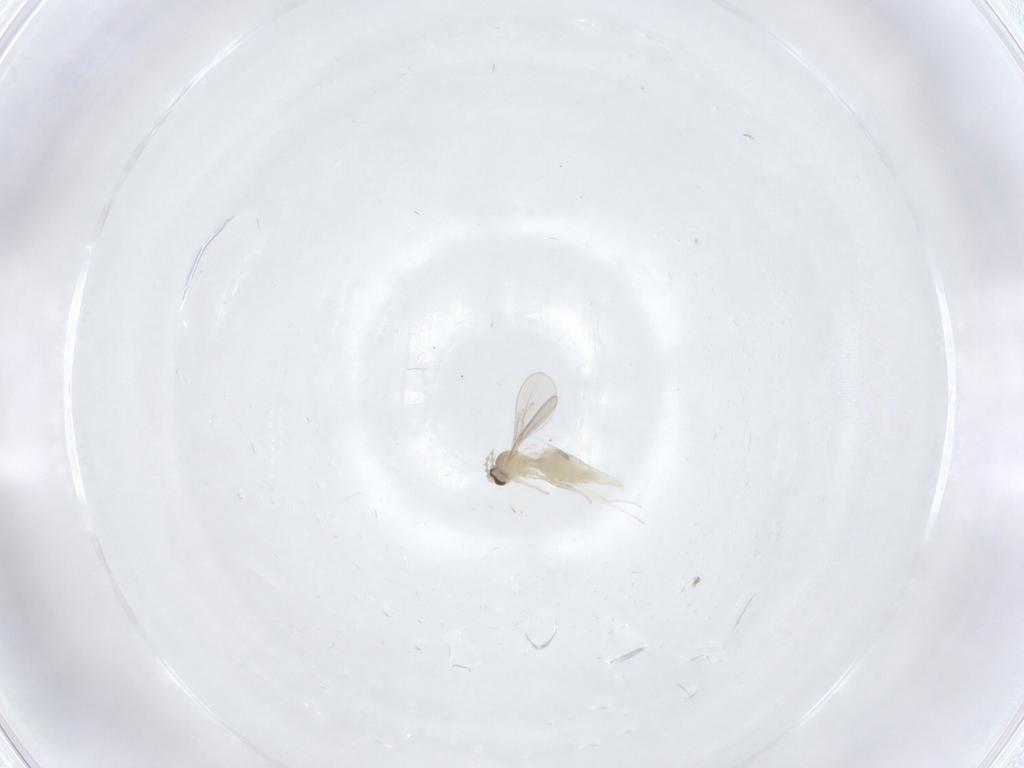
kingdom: Animalia
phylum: Arthropoda
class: Insecta
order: Diptera
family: Cecidomyiidae
